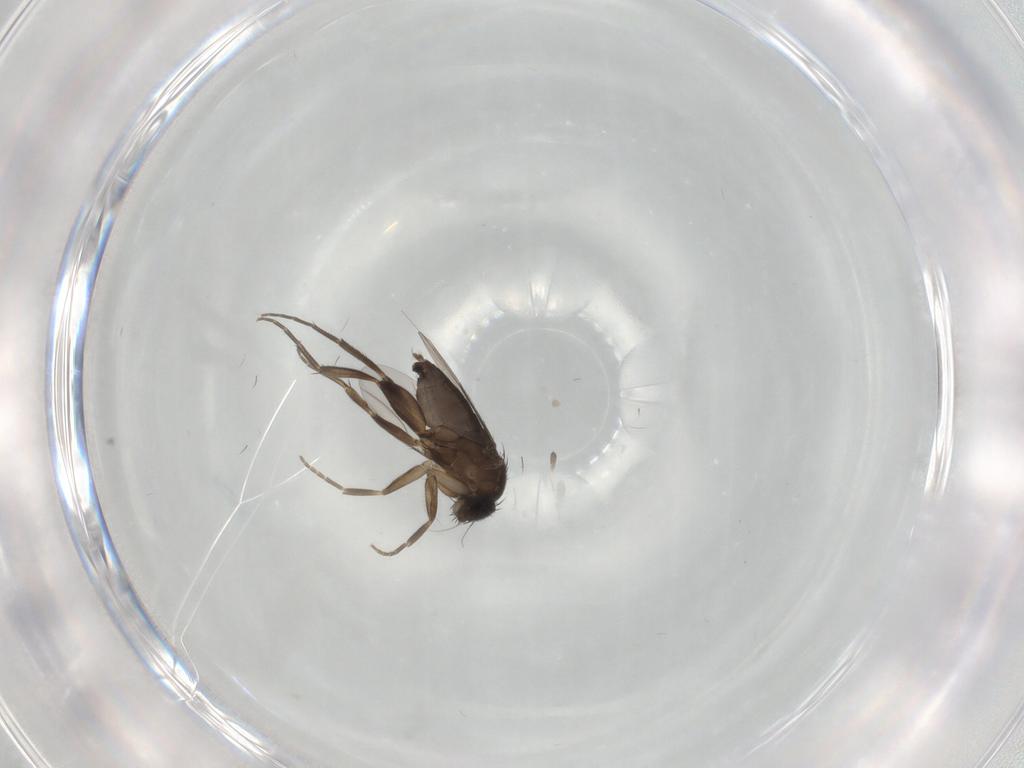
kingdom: Animalia
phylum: Arthropoda
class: Insecta
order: Diptera
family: Phoridae
